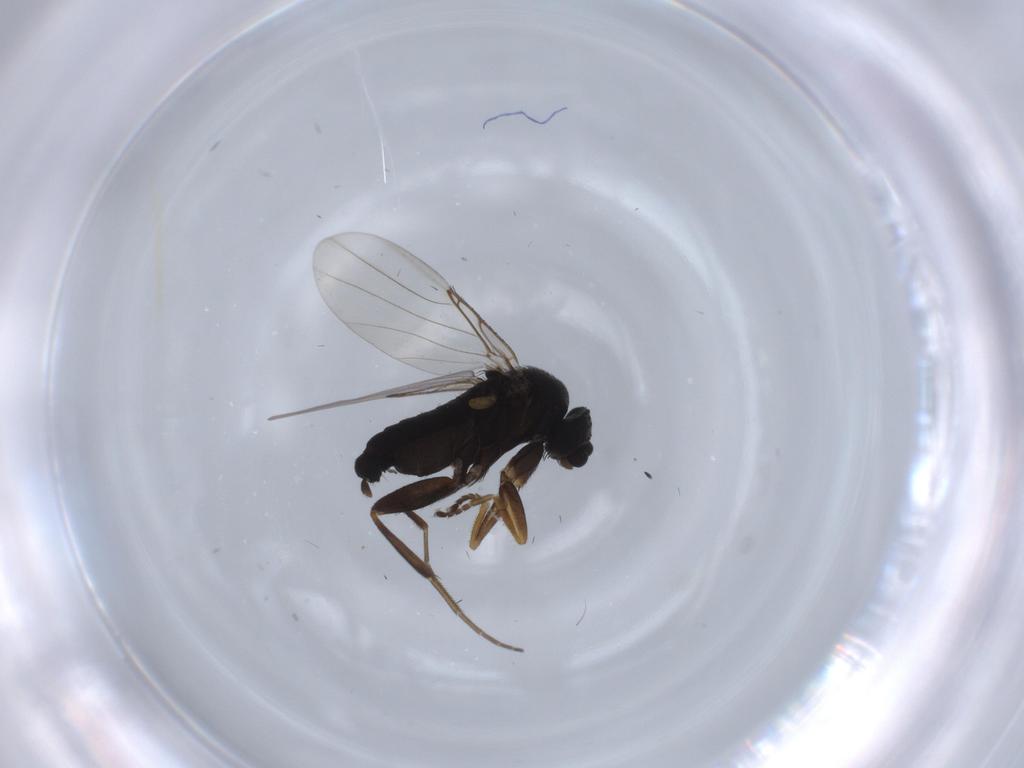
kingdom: Animalia
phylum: Arthropoda
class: Insecta
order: Diptera
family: Phoridae
